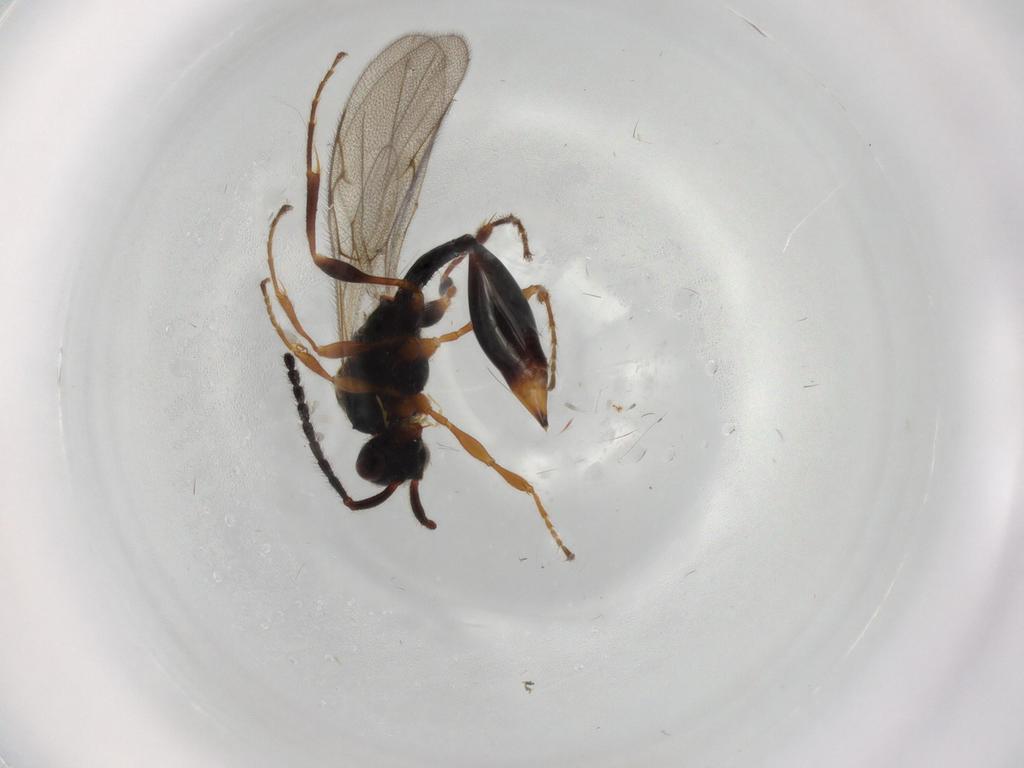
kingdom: Animalia
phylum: Arthropoda
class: Insecta
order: Hymenoptera
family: Diapriidae
